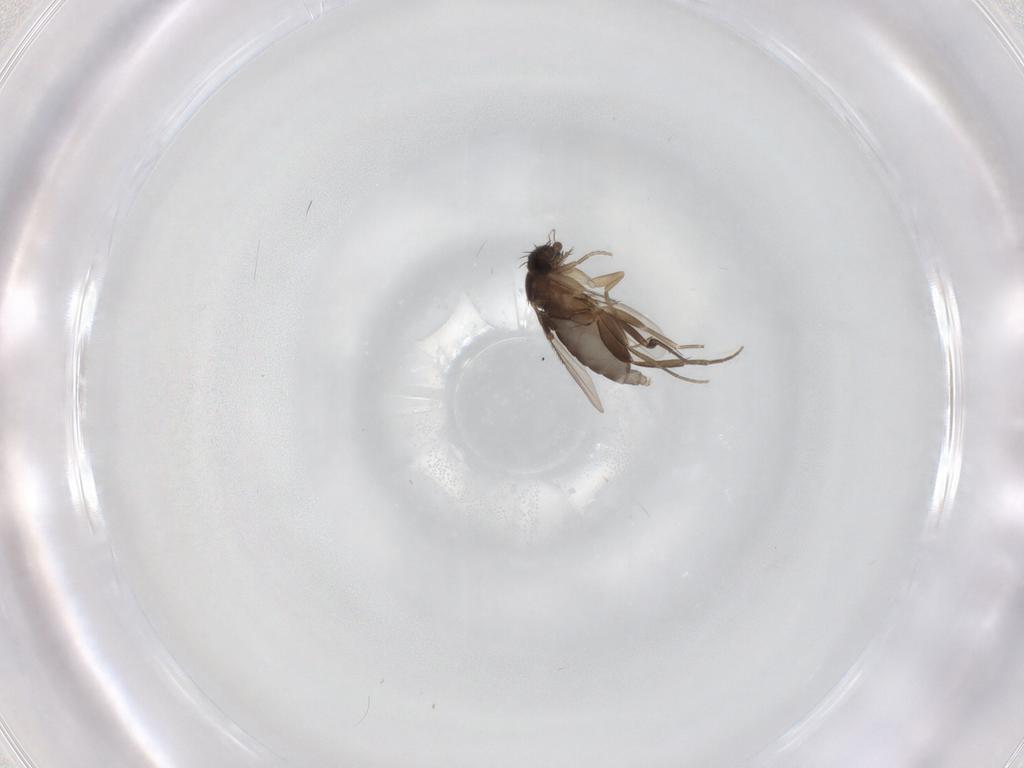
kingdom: Animalia
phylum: Arthropoda
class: Insecta
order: Diptera
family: Phoridae
